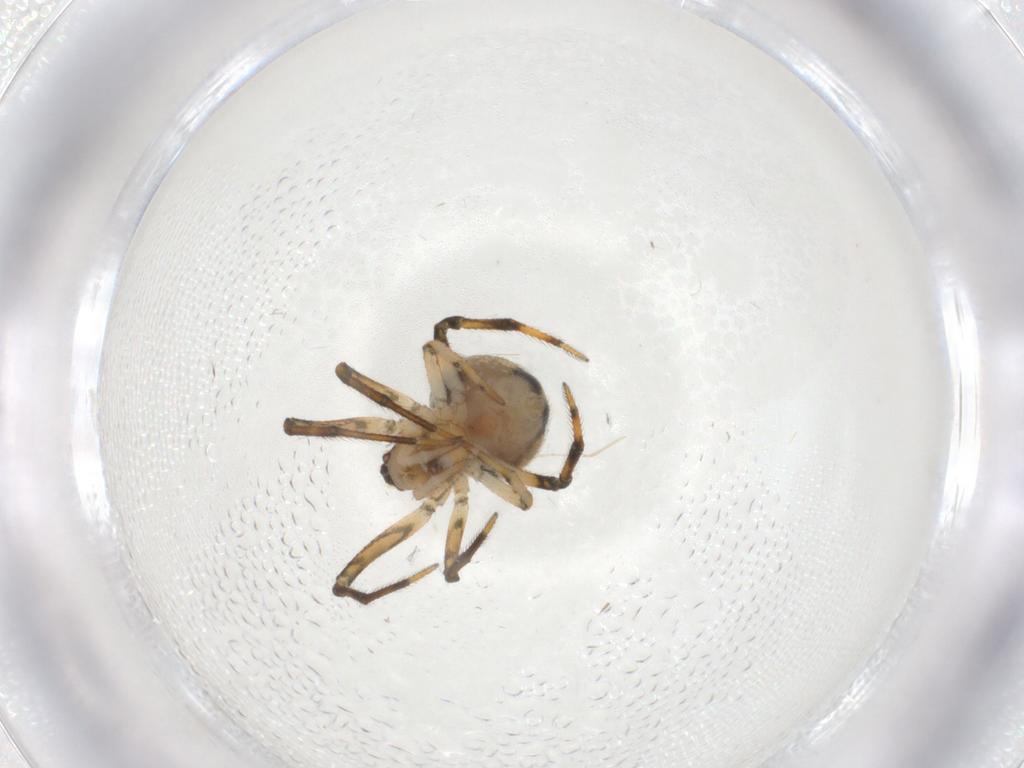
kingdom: Animalia
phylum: Arthropoda
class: Arachnida
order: Araneae
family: Theridiidae
